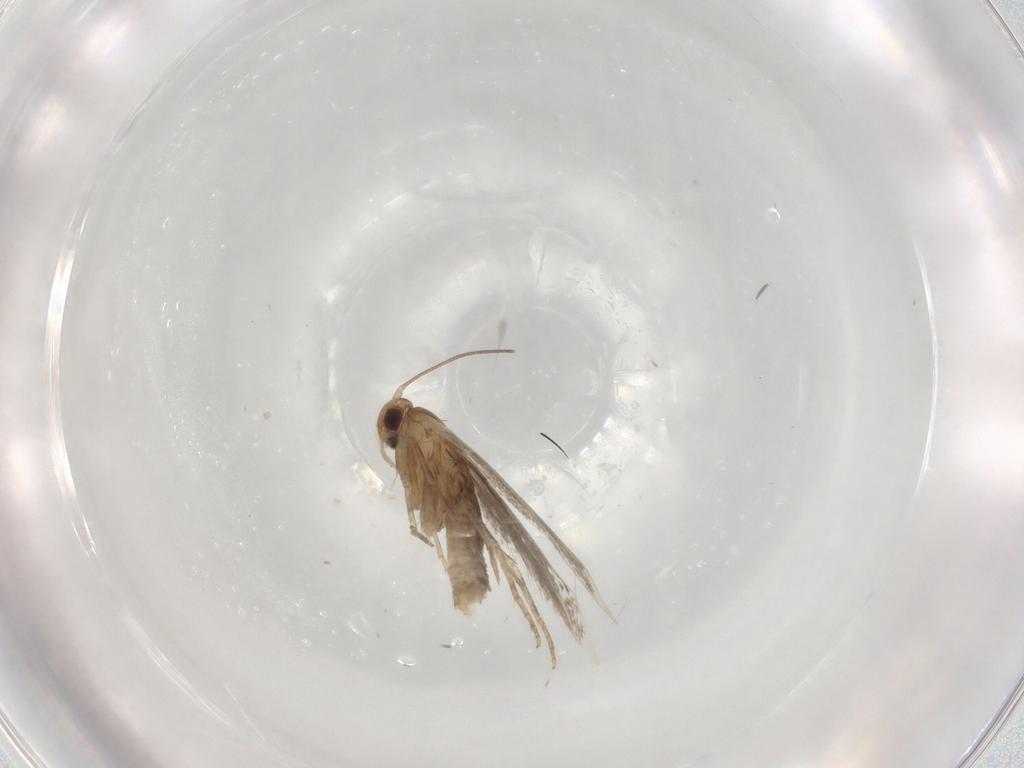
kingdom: Animalia
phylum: Arthropoda
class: Insecta
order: Lepidoptera
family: Elachistidae
